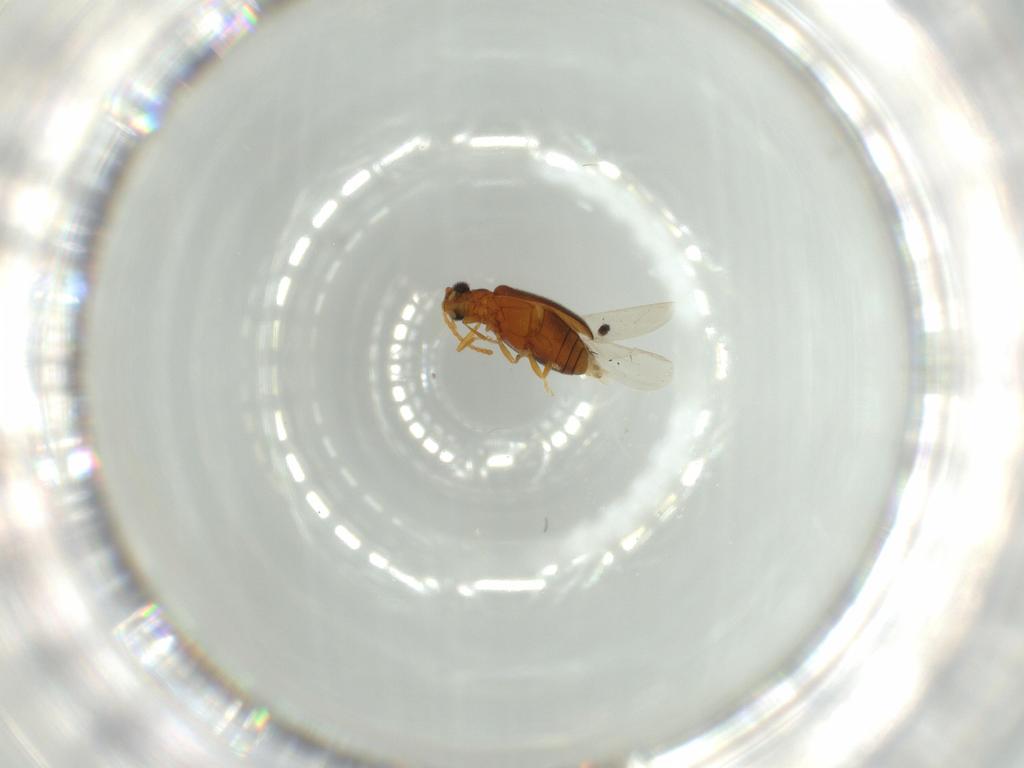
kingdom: Animalia
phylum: Arthropoda
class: Insecta
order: Coleoptera
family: Aderidae
